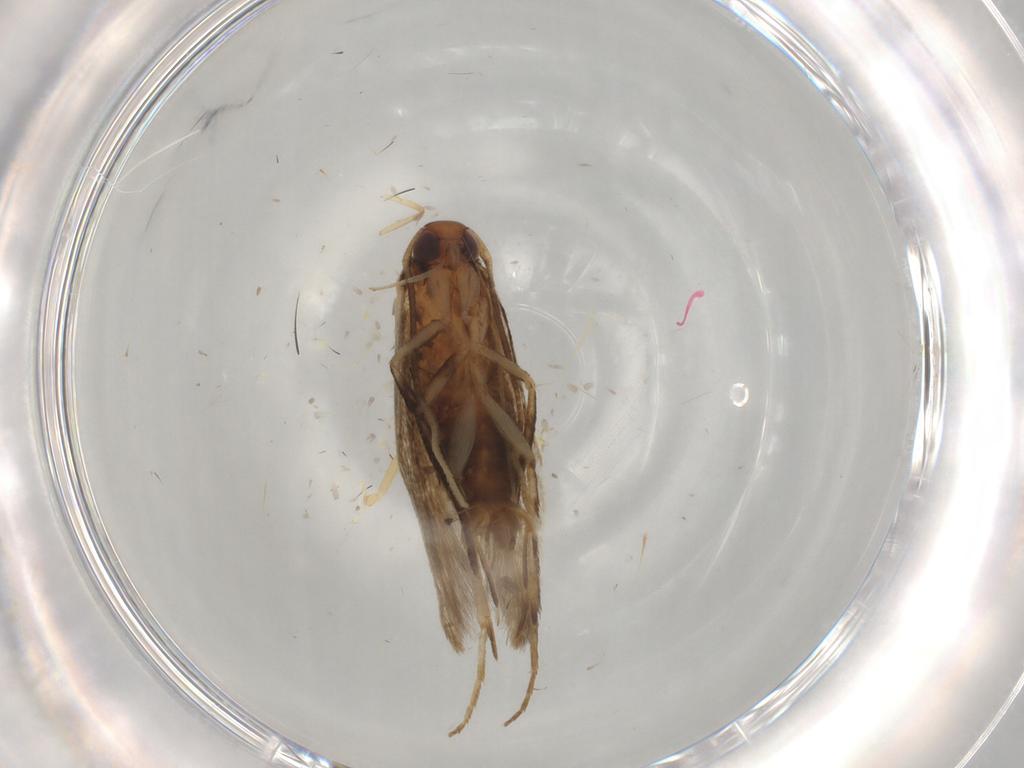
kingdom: Animalia
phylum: Arthropoda
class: Insecta
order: Lepidoptera
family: Cosmopterigidae
